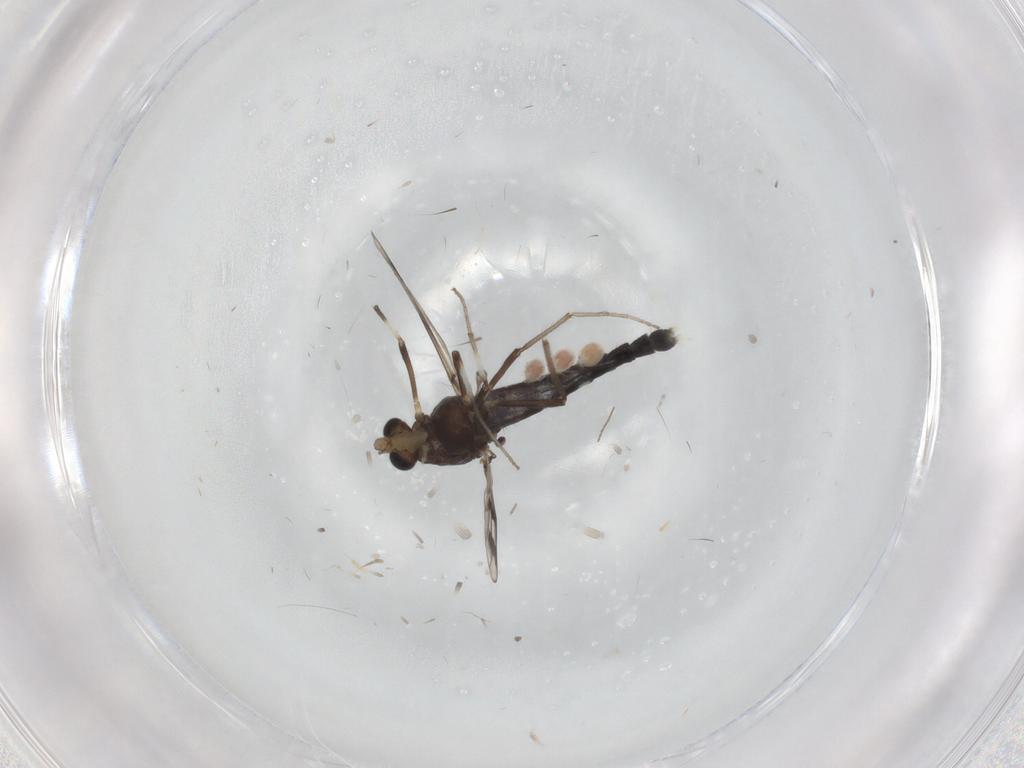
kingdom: Animalia
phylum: Arthropoda
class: Insecta
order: Diptera
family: Chironomidae
